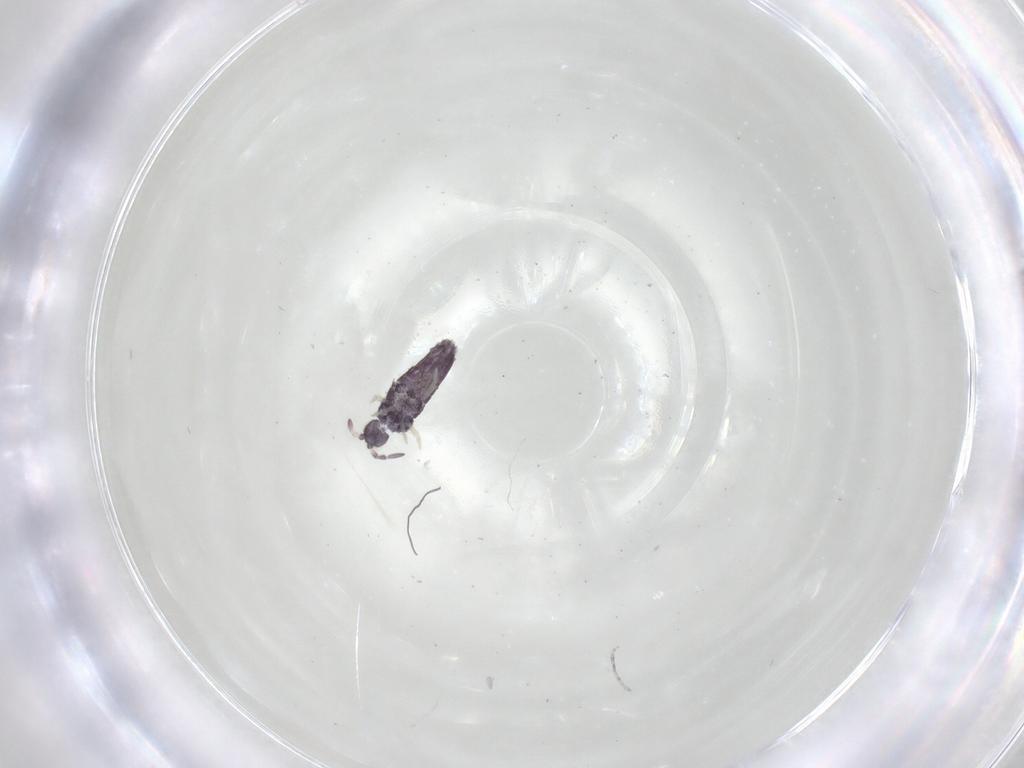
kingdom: Animalia
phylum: Arthropoda
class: Collembola
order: Entomobryomorpha
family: Entomobryidae
